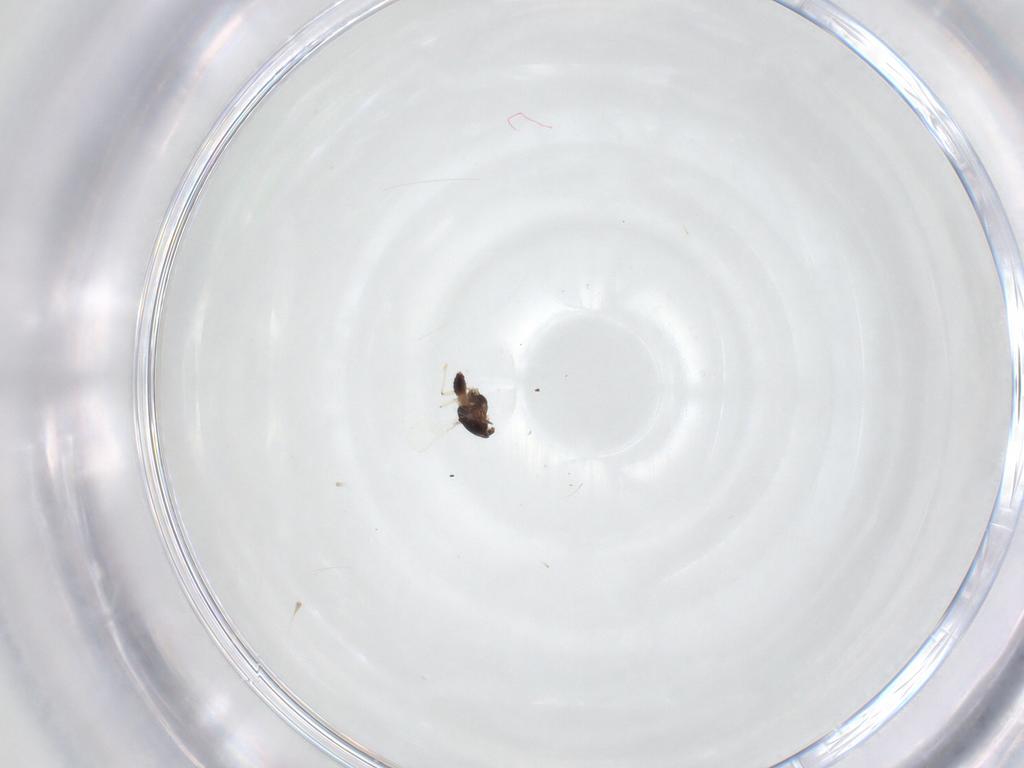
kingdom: Animalia
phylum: Arthropoda
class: Insecta
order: Diptera
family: Chironomidae
